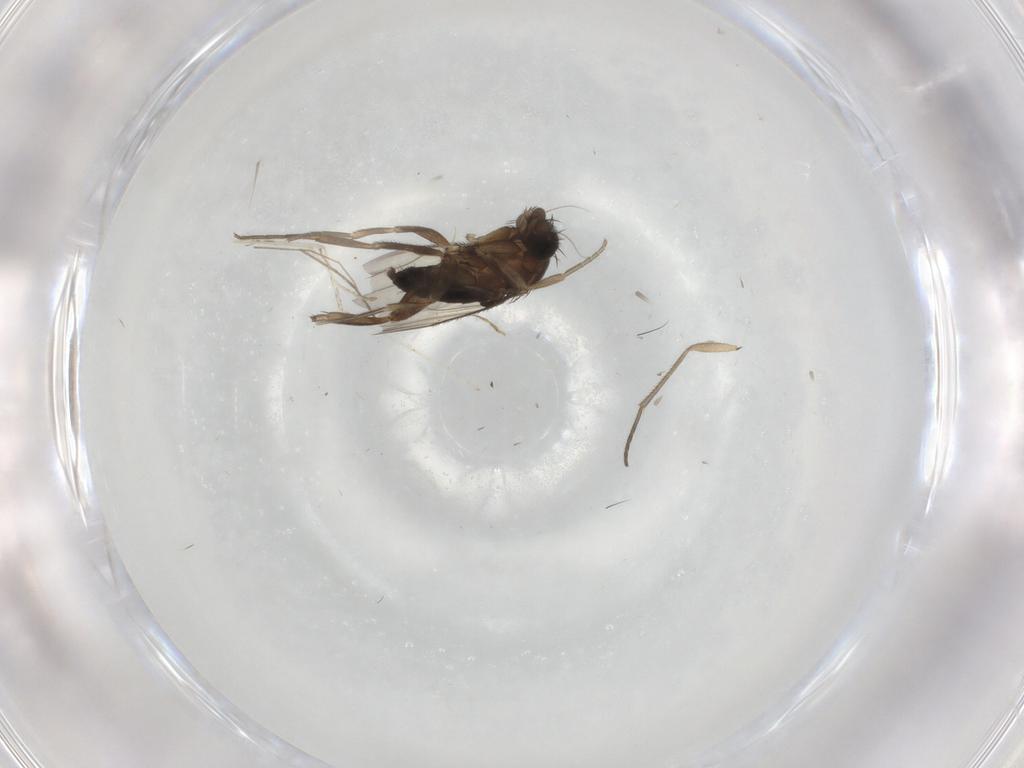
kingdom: Animalia
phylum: Arthropoda
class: Insecta
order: Diptera
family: Phoridae
